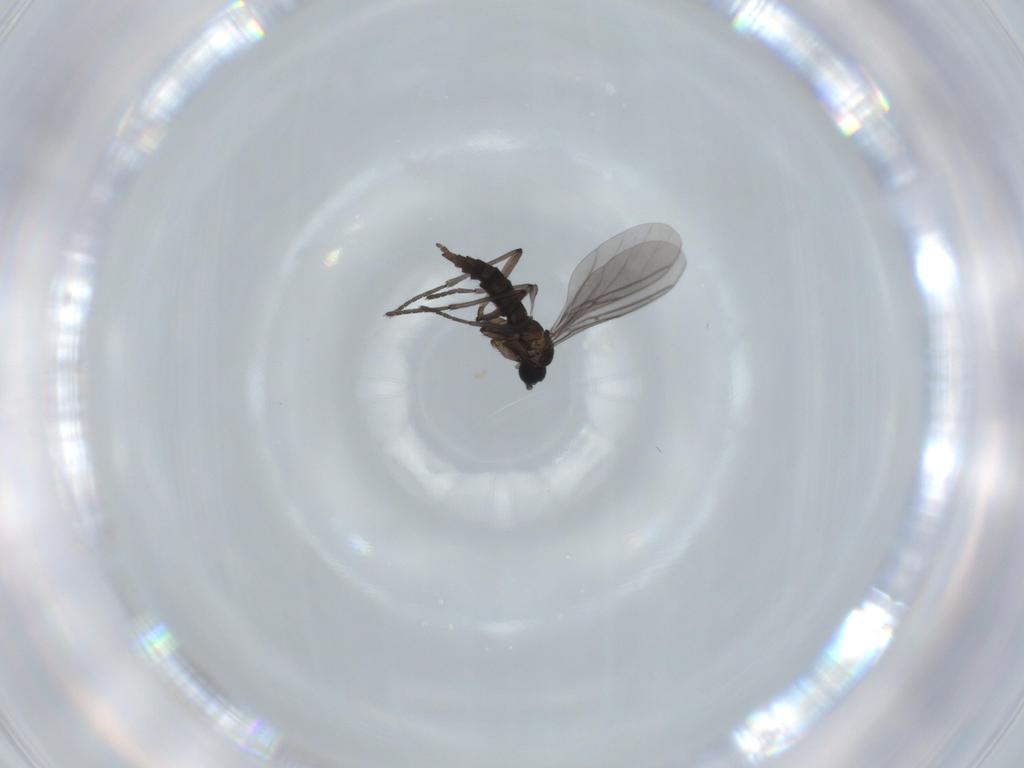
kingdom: Animalia
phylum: Arthropoda
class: Insecta
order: Diptera
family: Sciaridae
